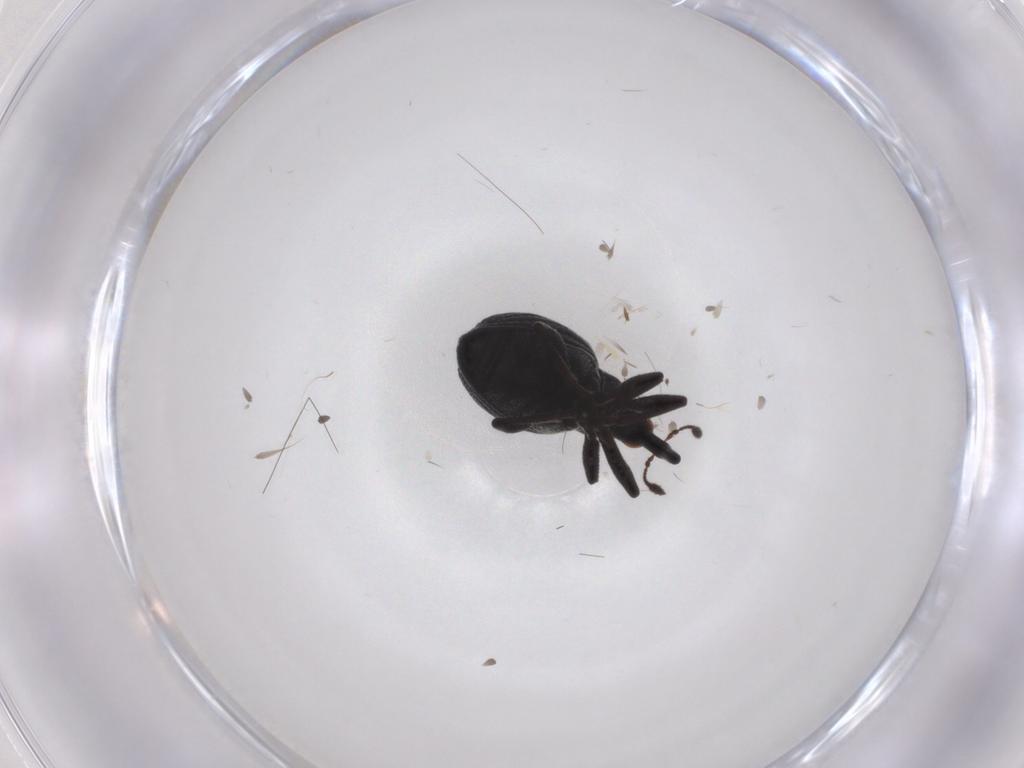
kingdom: Animalia
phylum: Arthropoda
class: Insecta
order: Coleoptera
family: Brentidae
